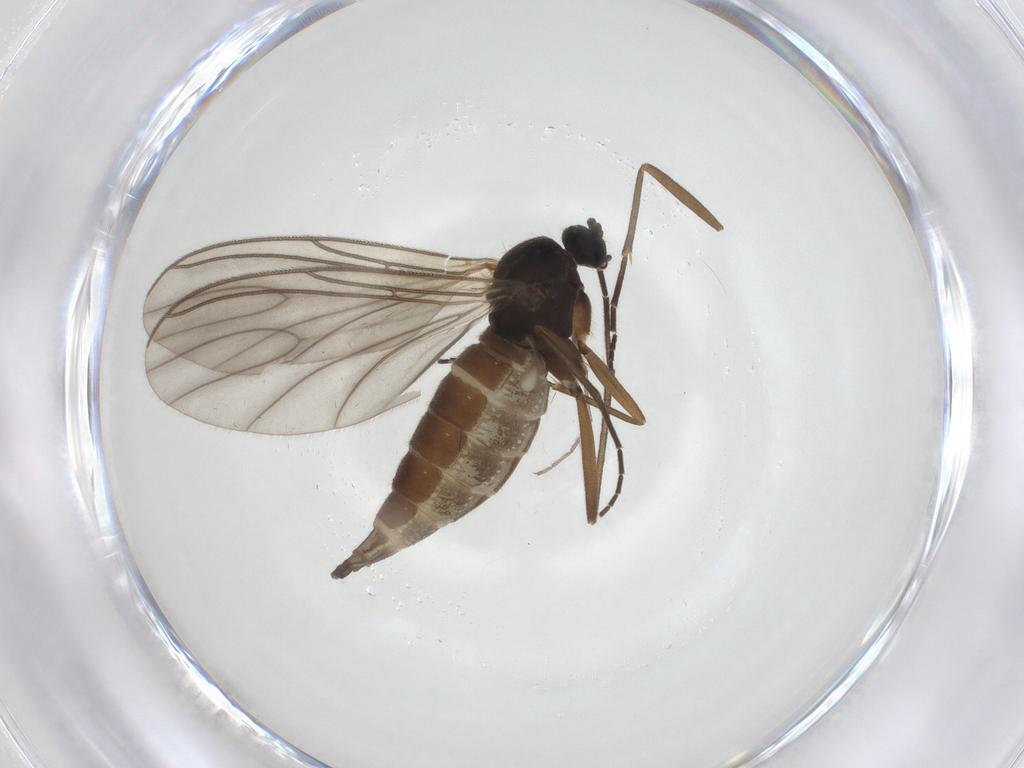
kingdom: Animalia
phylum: Arthropoda
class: Insecta
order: Diptera
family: Sciaridae
